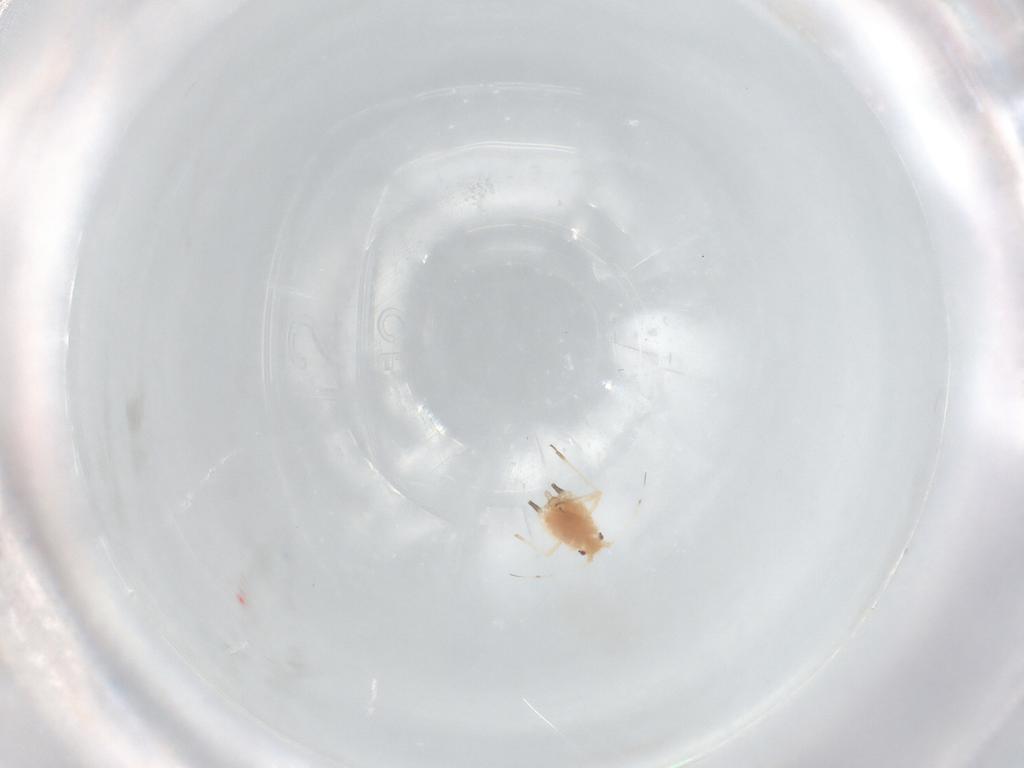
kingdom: Animalia
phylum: Arthropoda
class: Insecta
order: Hemiptera
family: Aphididae
